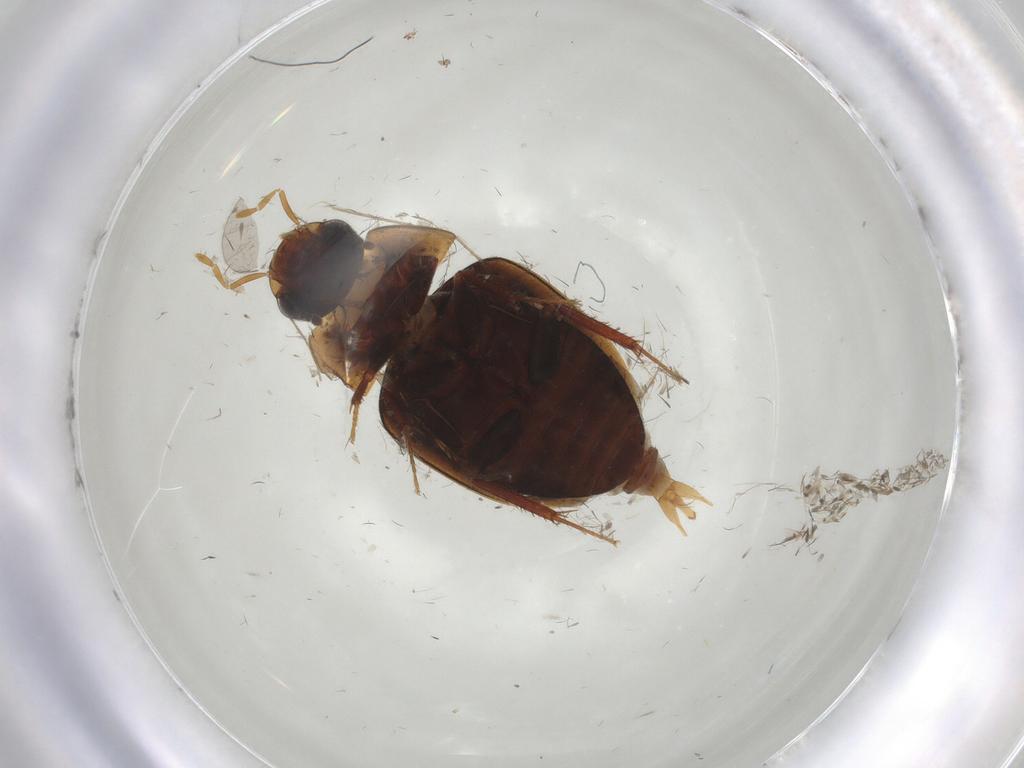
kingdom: Animalia
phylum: Arthropoda
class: Insecta
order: Coleoptera
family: Hydrophilidae
